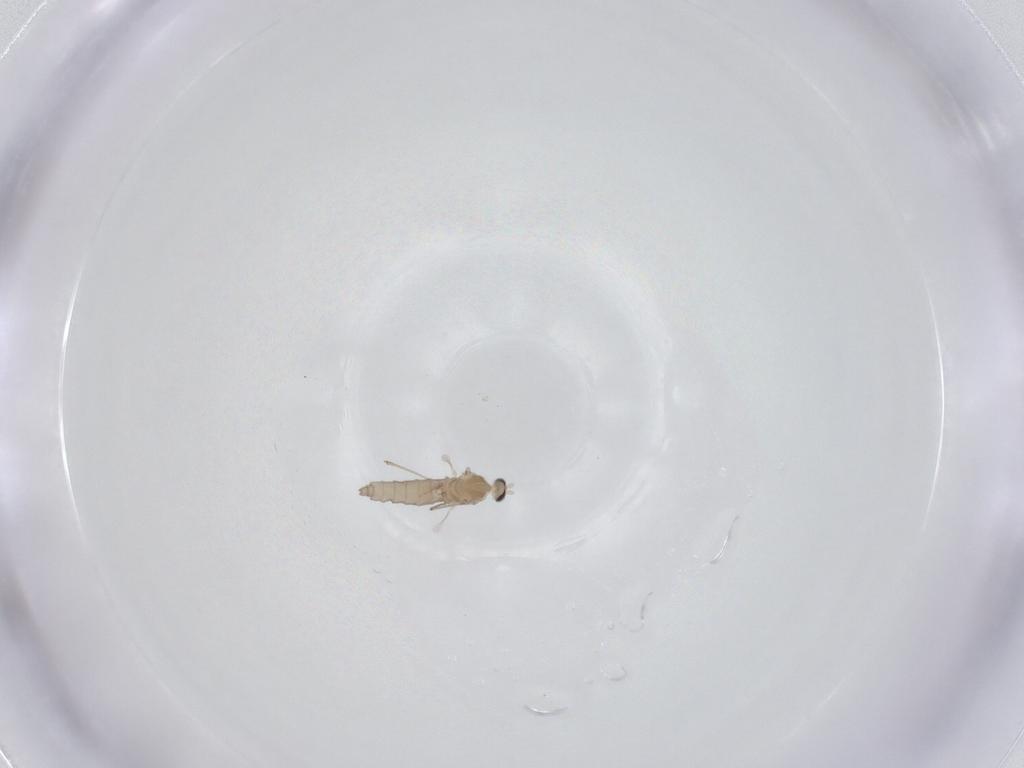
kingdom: Animalia
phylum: Arthropoda
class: Insecta
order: Diptera
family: Cecidomyiidae
